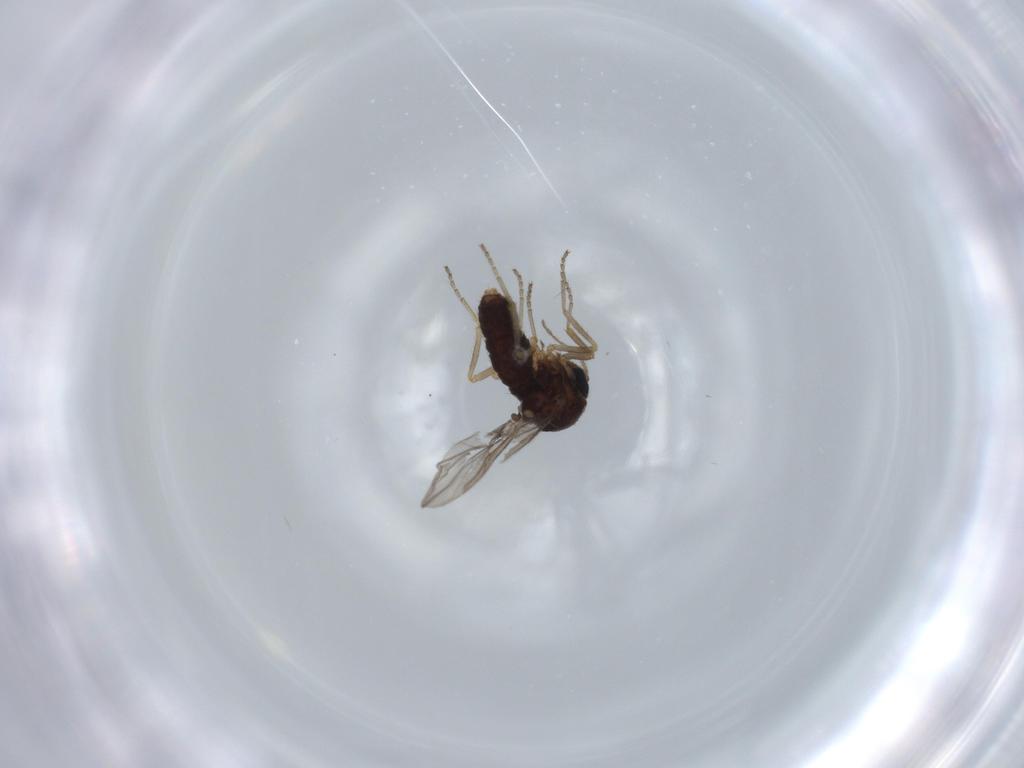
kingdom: Animalia
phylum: Arthropoda
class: Insecta
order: Diptera
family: Ceratopogonidae
